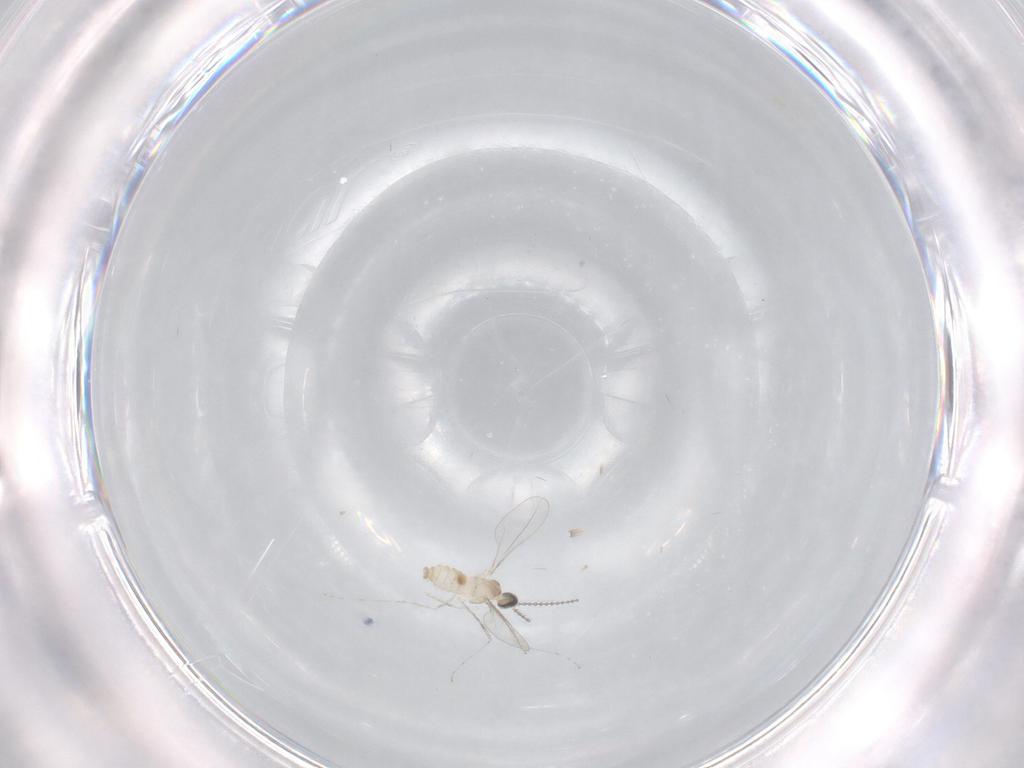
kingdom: Animalia
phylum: Arthropoda
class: Insecta
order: Diptera
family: Cecidomyiidae
